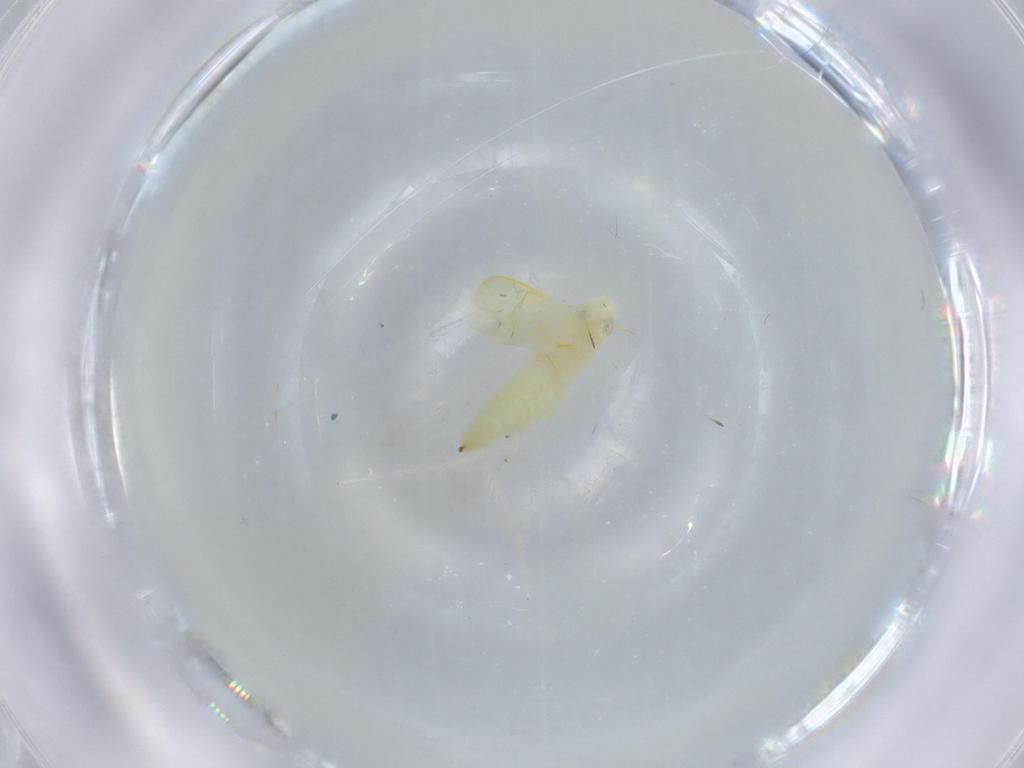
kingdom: Animalia
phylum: Arthropoda
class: Insecta
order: Hemiptera
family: Cicadellidae
